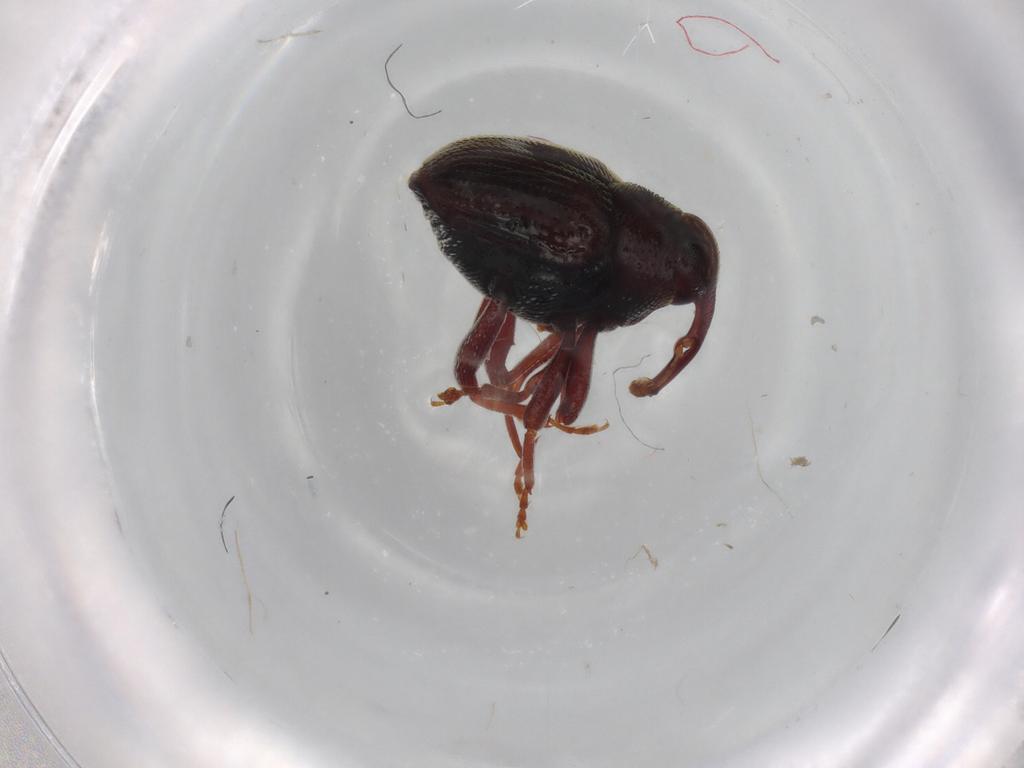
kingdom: Animalia
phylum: Arthropoda
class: Insecta
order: Coleoptera
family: Curculionidae
